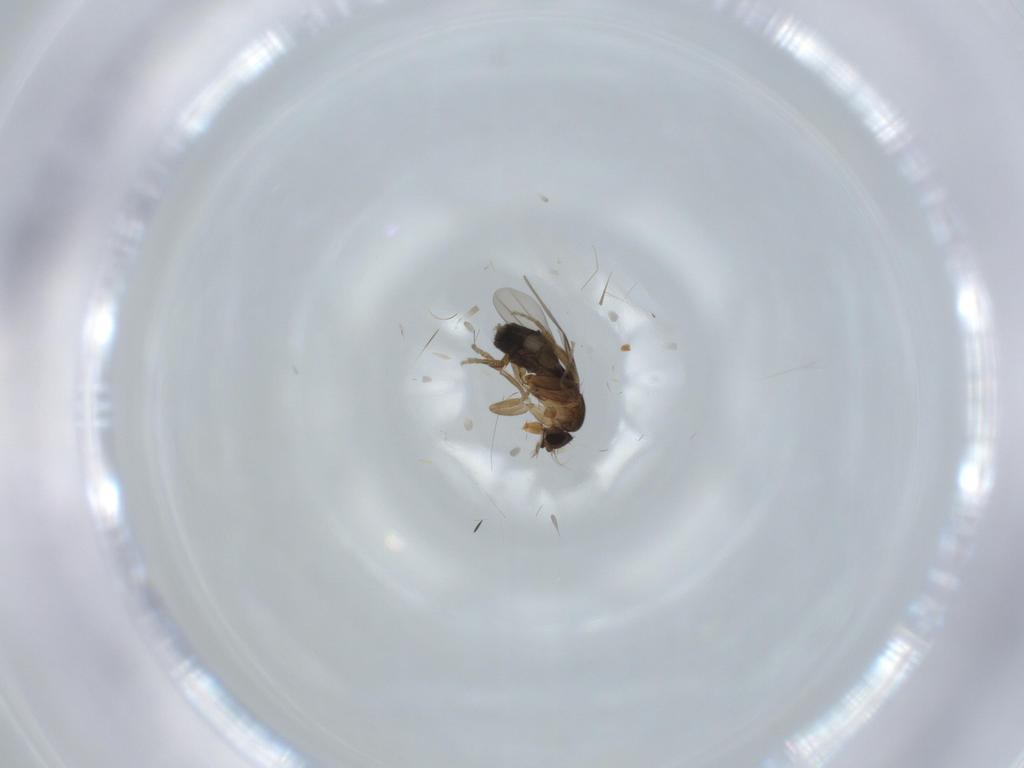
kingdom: Animalia
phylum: Arthropoda
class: Insecta
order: Diptera
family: Phoridae
